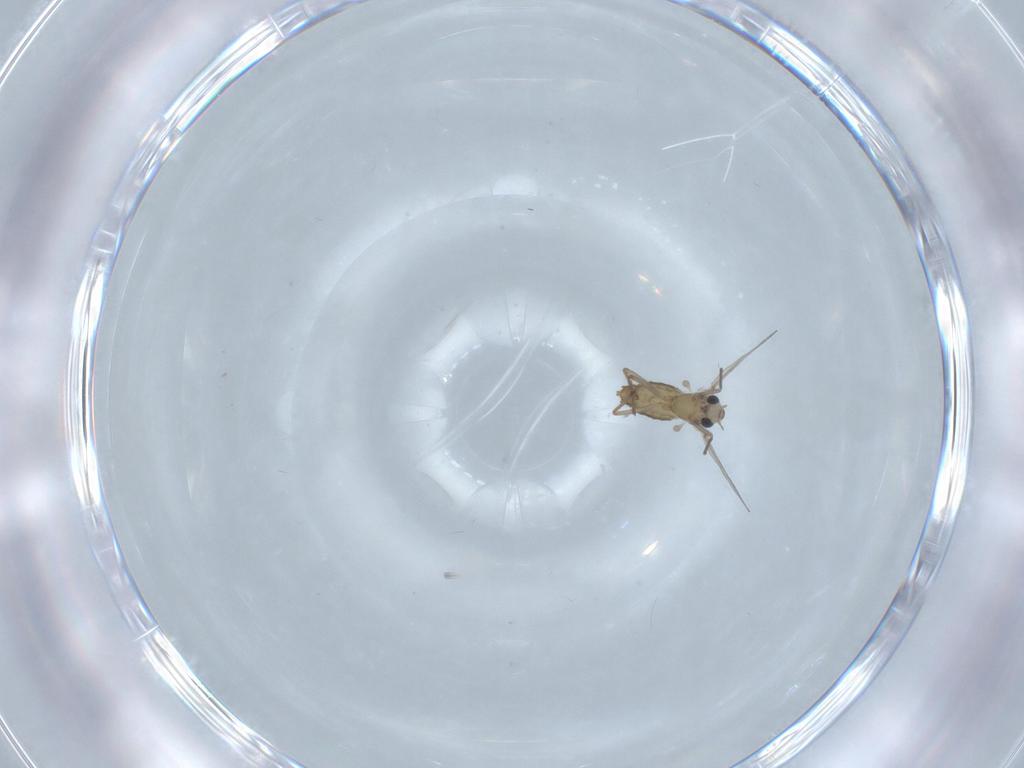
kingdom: Animalia
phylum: Arthropoda
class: Insecta
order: Diptera
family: Chironomidae
